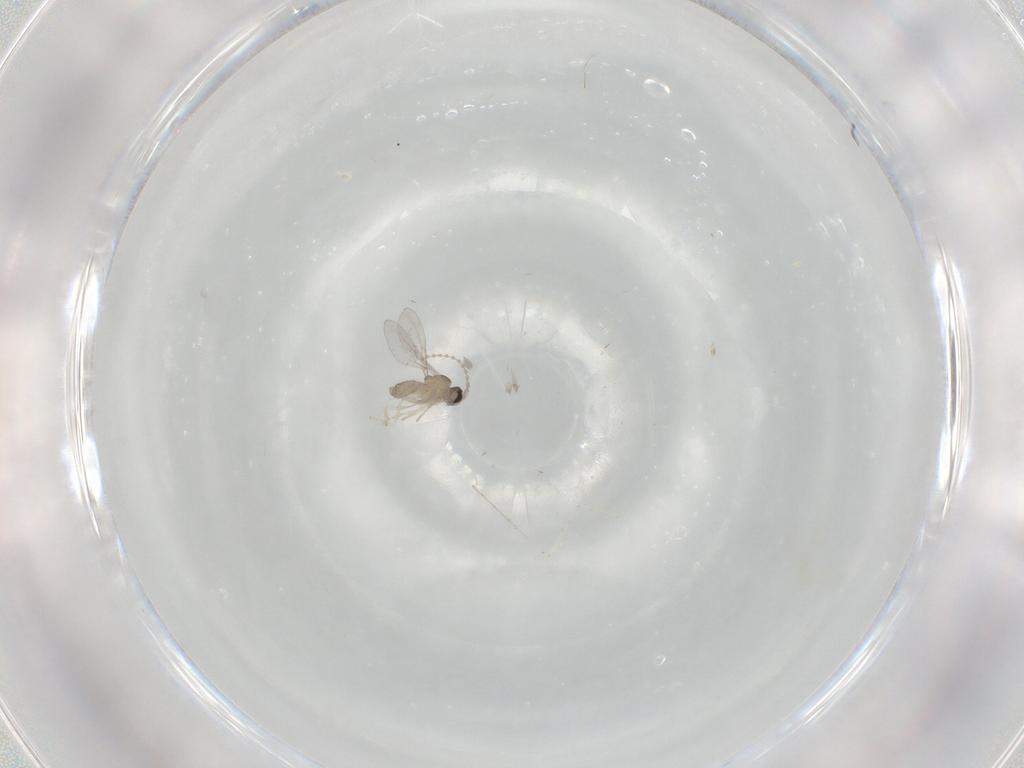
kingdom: Animalia
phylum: Arthropoda
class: Insecta
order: Diptera
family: Cecidomyiidae
